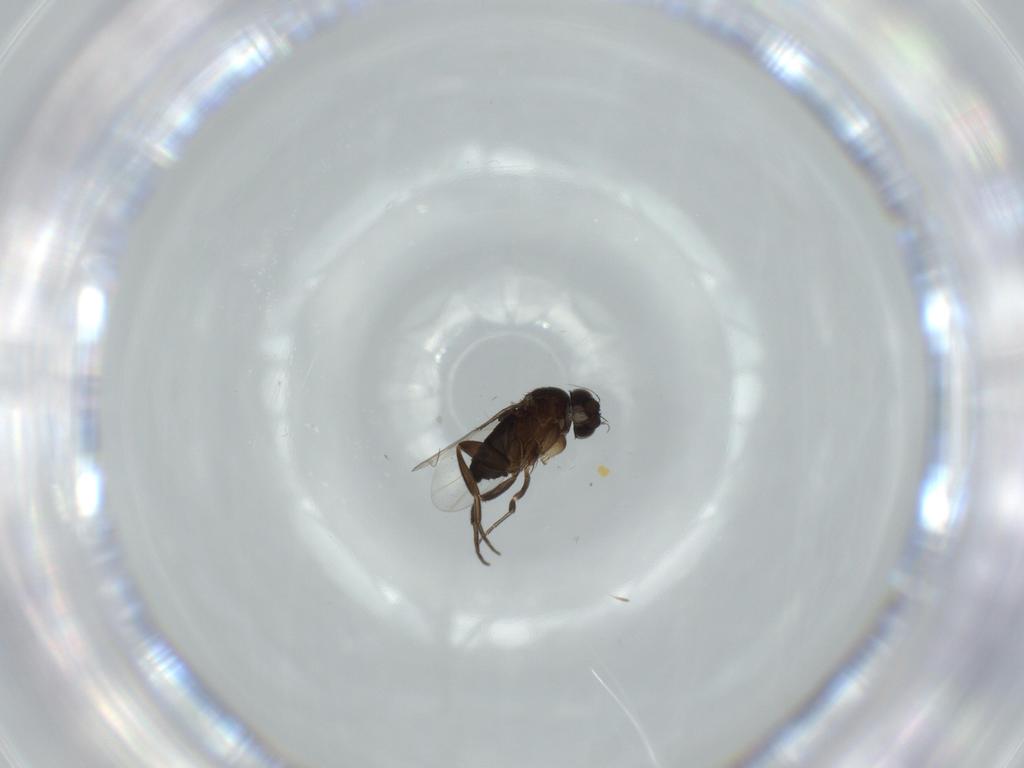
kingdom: Animalia
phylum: Arthropoda
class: Insecta
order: Diptera
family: Phoridae
